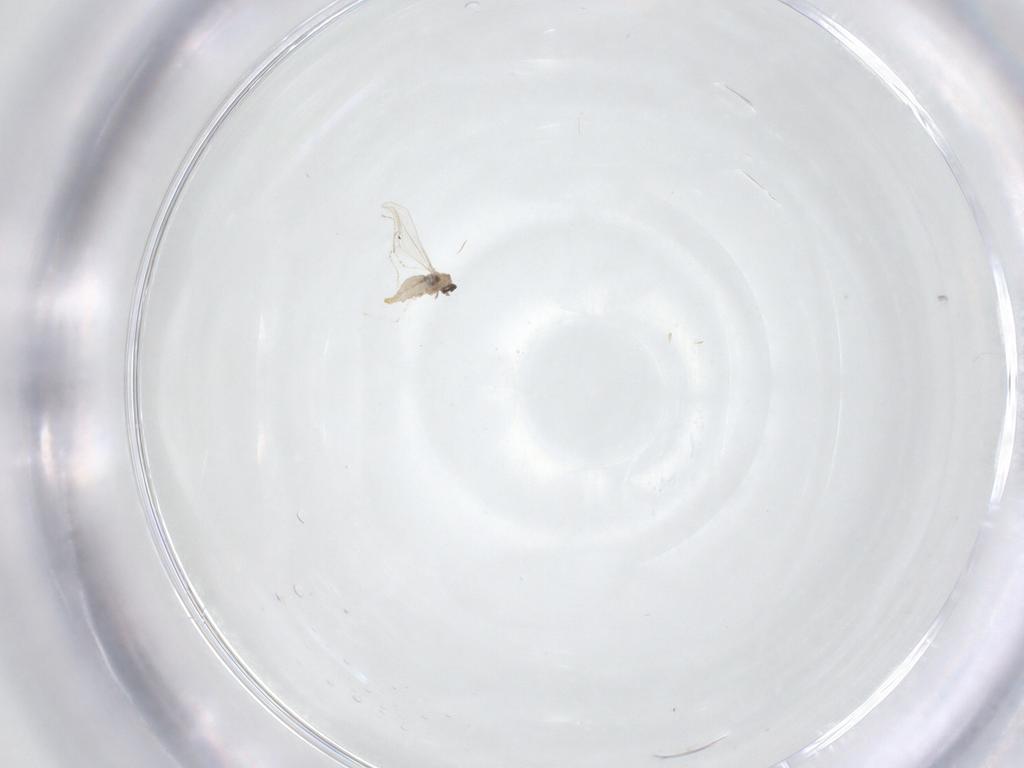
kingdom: Animalia
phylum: Arthropoda
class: Insecta
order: Diptera
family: Cecidomyiidae
